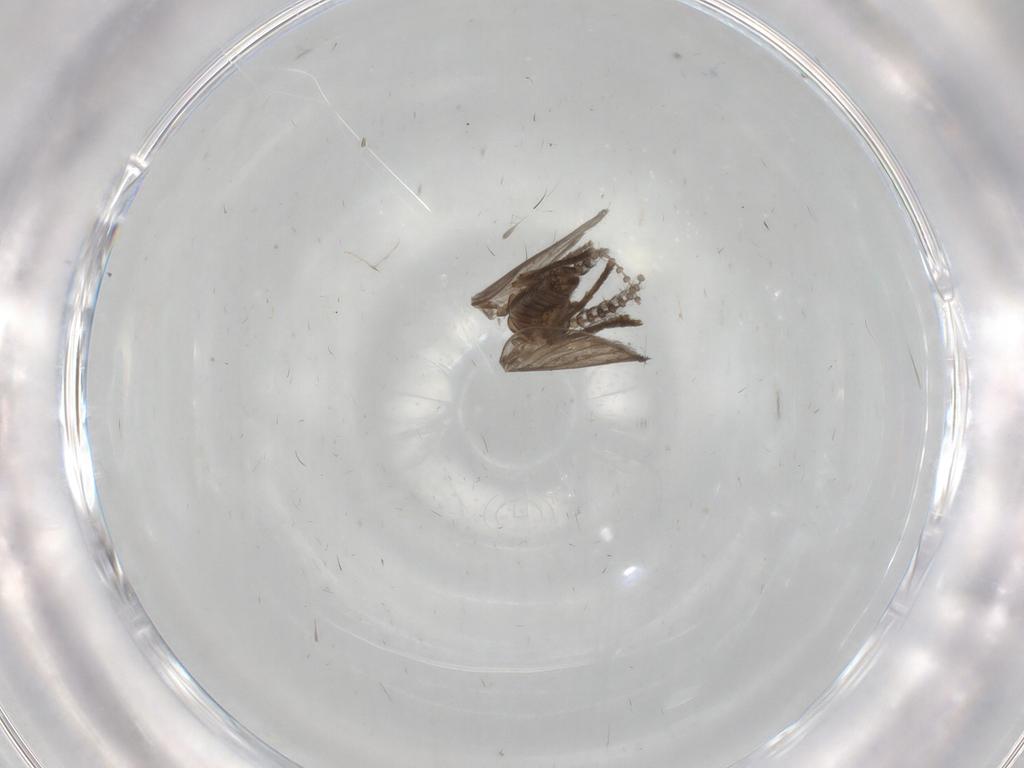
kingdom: Animalia
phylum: Arthropoda
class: Insecta
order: Diptera
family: Psychodidae
